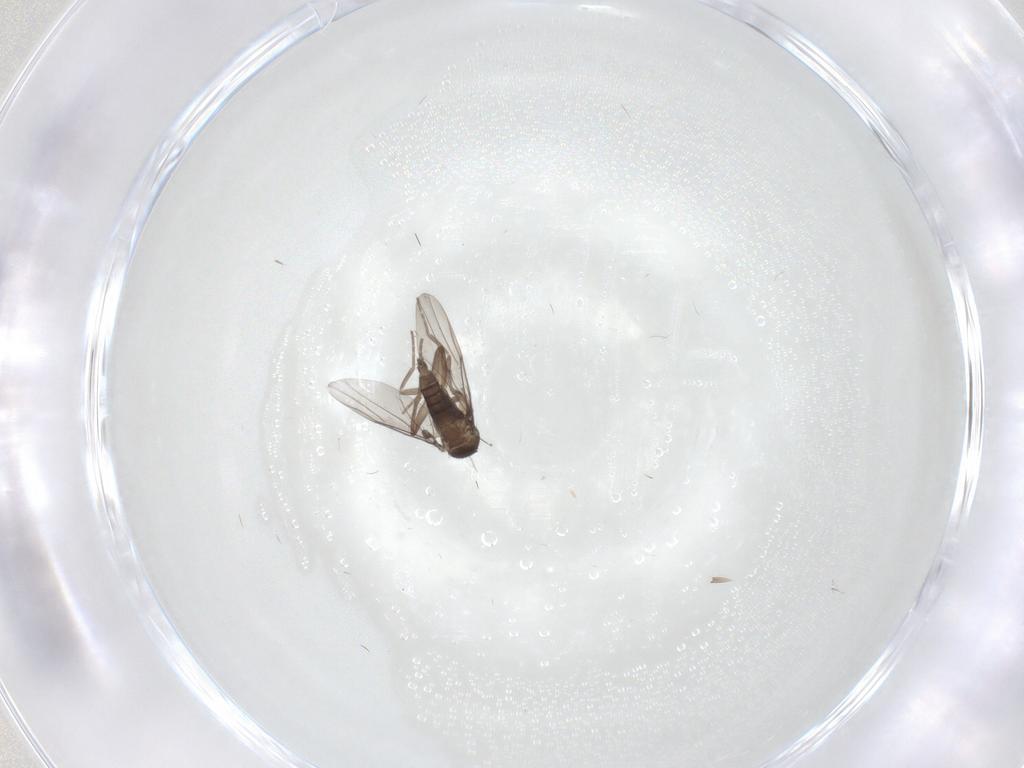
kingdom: Animalia
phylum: Arthropoda
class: Insecta
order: Diptera
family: Phoridae
